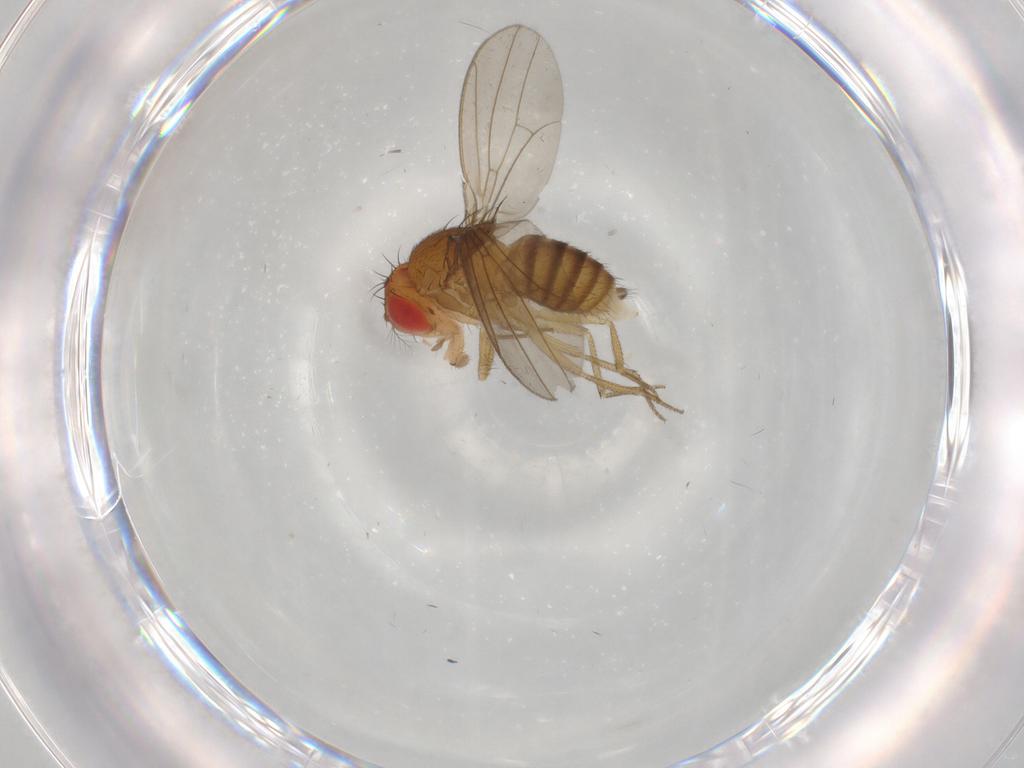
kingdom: Animalia
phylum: Arthropoda
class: Insecta
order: Diptera
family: Drosophilidae
